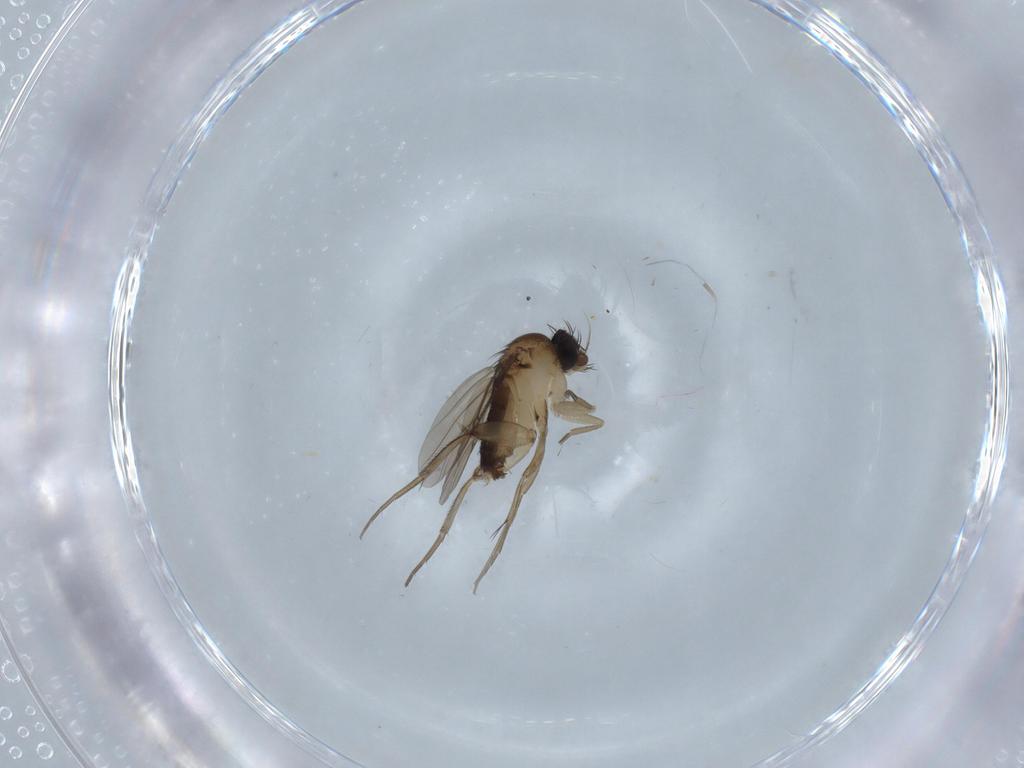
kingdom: Animalia
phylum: Arthropoda
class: Insecta
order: Diptera
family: Phoridae
